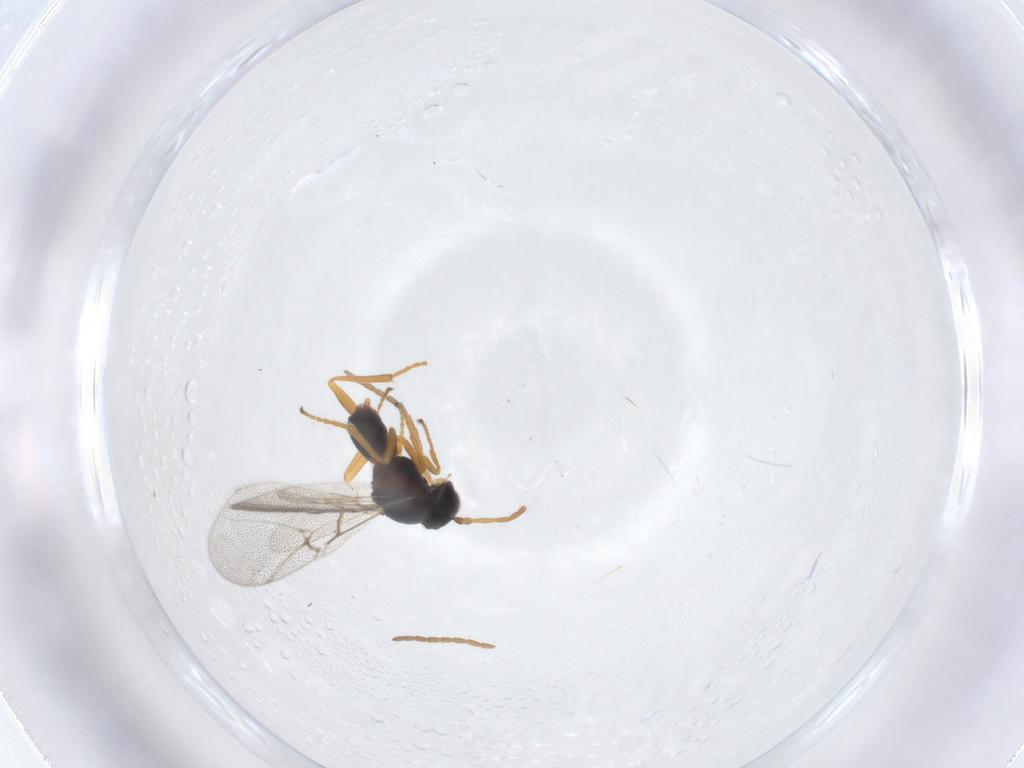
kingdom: Animalia
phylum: Arthropoda
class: Insecta
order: Hymenoptera
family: Cynipidae
